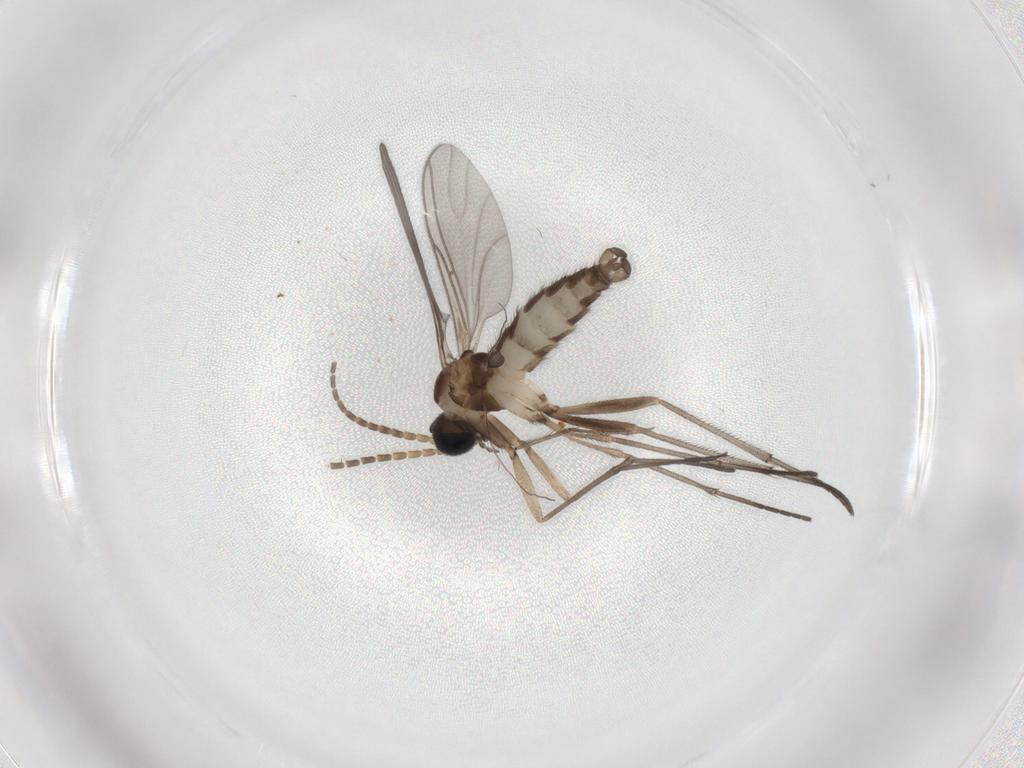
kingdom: Animalia
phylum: Arthropoda
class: Insecta
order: Diptera
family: Sciaridae
